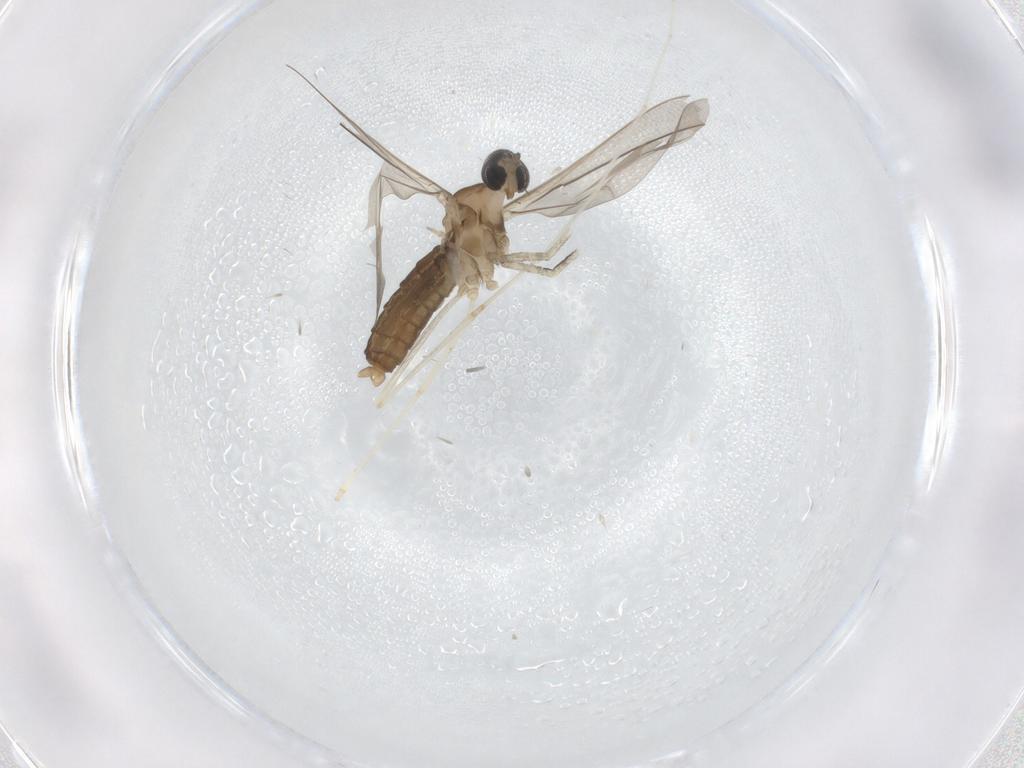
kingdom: Animalia
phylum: Arthropoda
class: Insecta
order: Diptera
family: Cecidomyiidae
